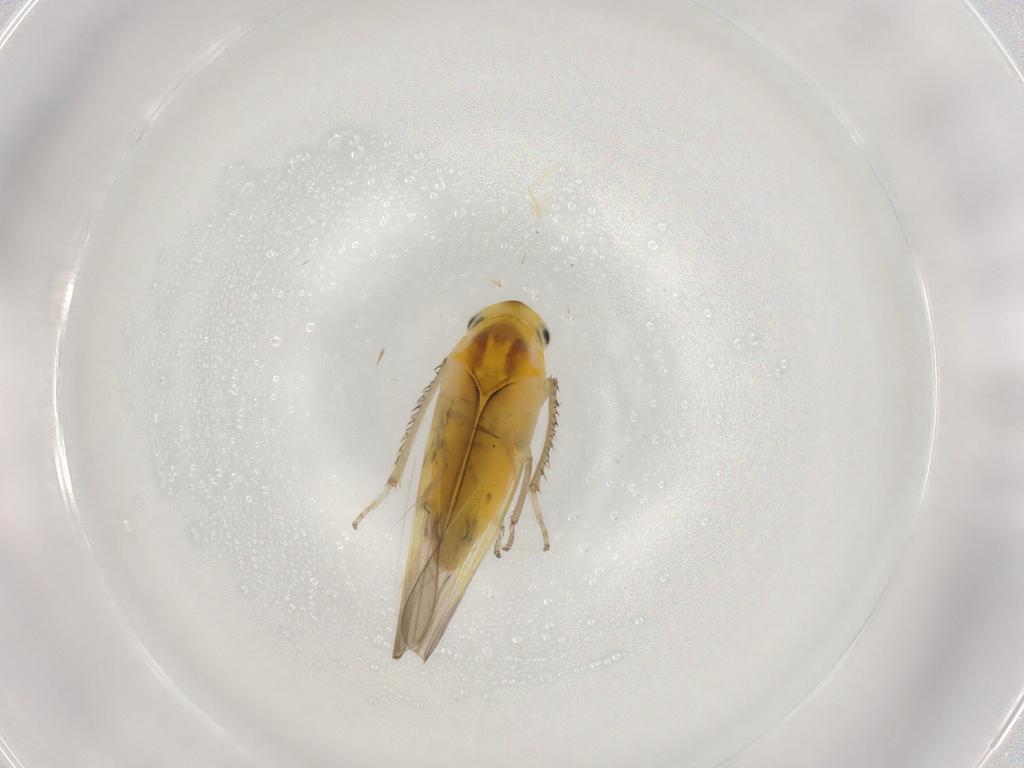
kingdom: Animalia
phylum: Arthropoda
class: Insecta
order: Hemiptera
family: Cicadellidae
